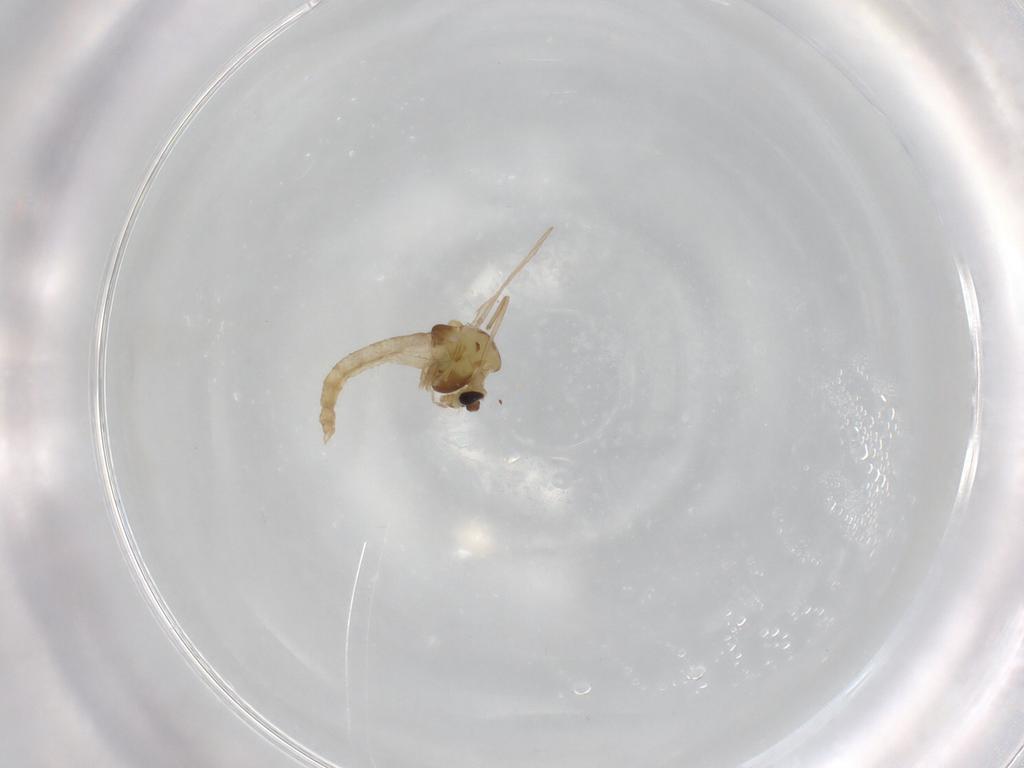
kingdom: Animalia
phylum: Arthropoda
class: Insecta
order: Diptera
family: Chironomidae
